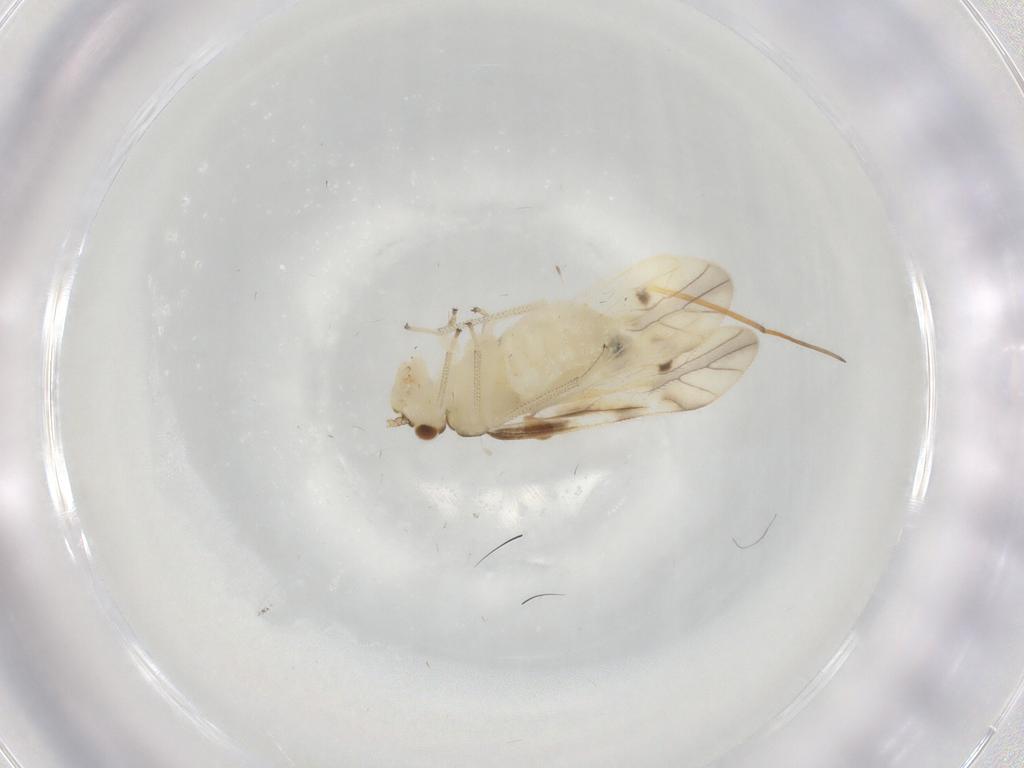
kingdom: Animalia
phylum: Arthropoda
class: Insecta
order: Psocodea
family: Caeciliusidae
